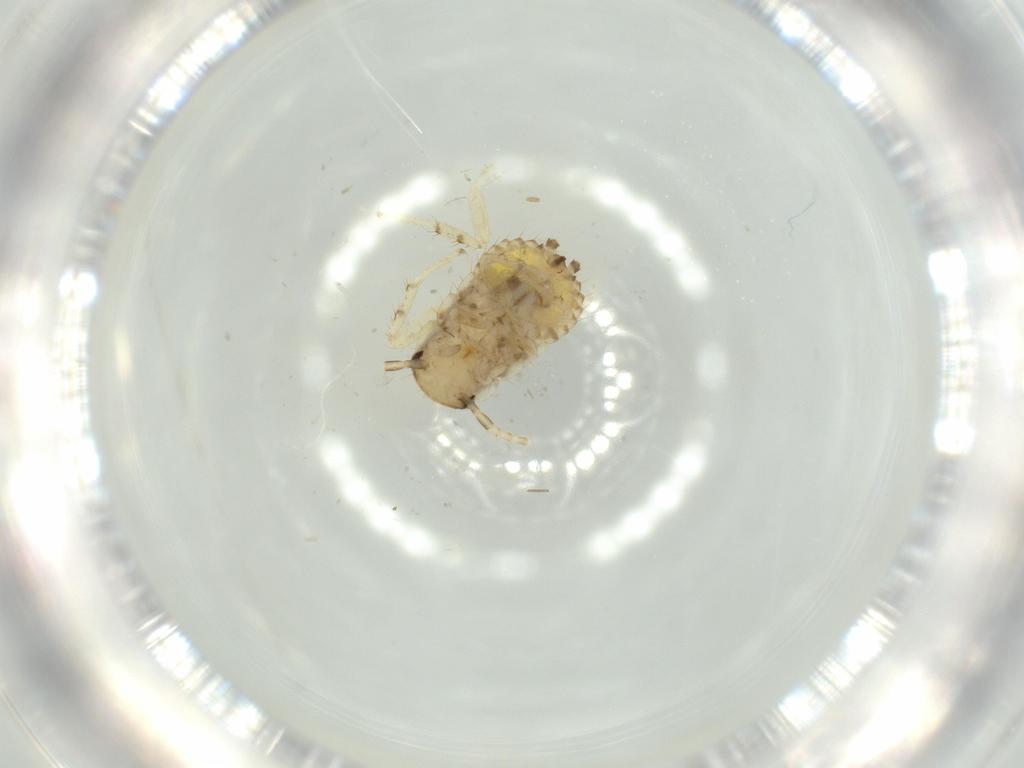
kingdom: Animalia
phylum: Arthropoda
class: Insecta
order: Blattodea
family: Ectobiidae
